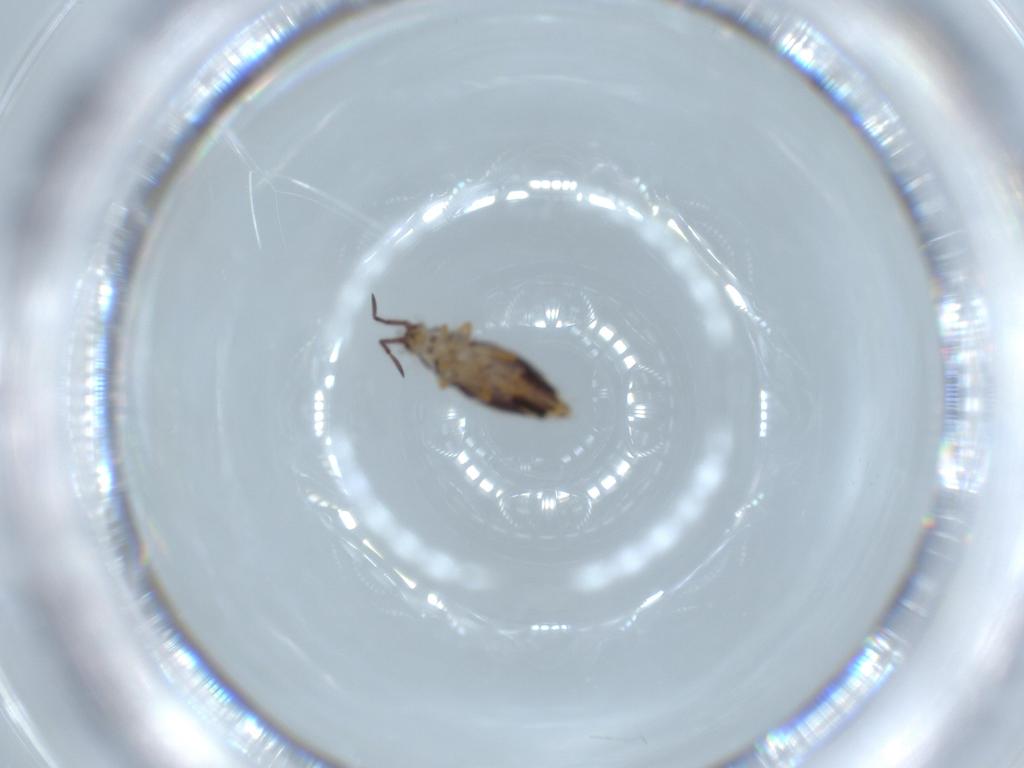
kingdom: Animalia
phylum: Arthropoda
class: Collembola
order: Entomobryomorpha
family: Entomobryidae
